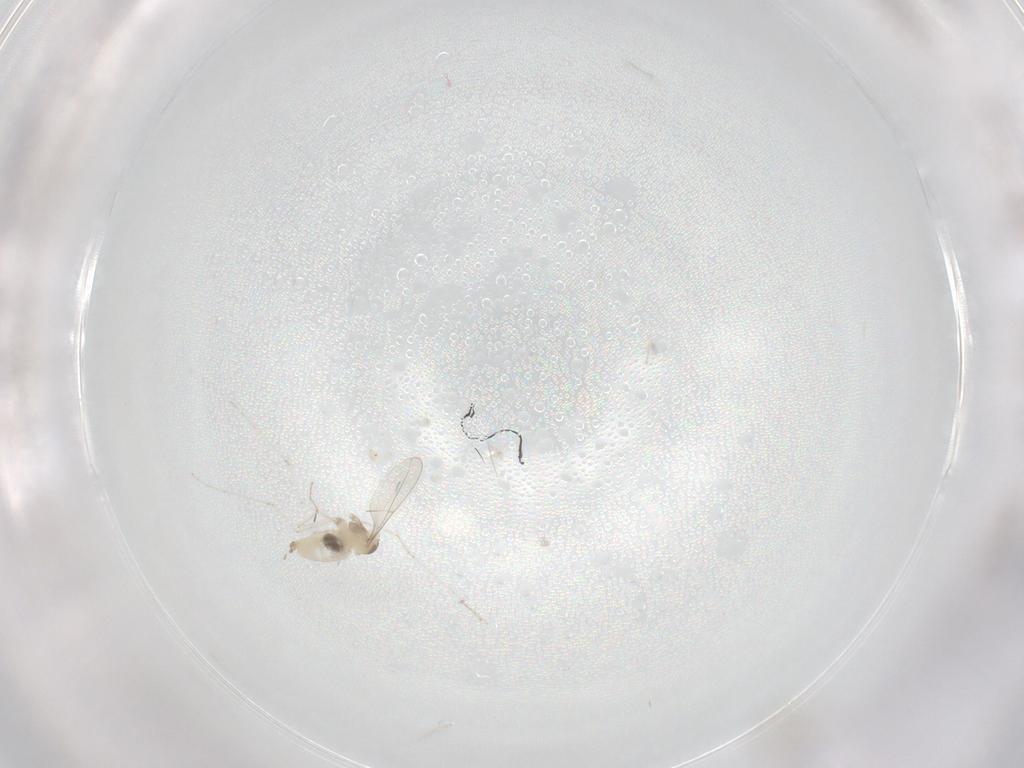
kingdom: Animalia
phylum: Arthropoda
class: Insecta
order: Diptera
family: Cecidomyiidae
